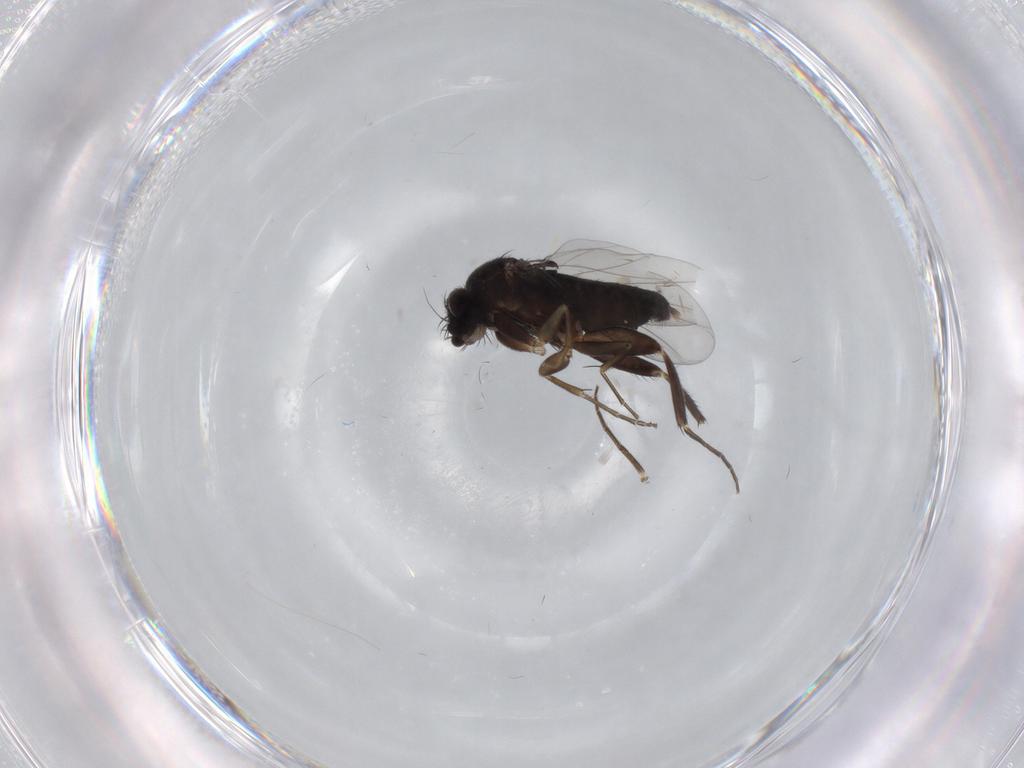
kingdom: Animalia
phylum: Arthropoda
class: Insecta
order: Diptera
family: Phoridae
